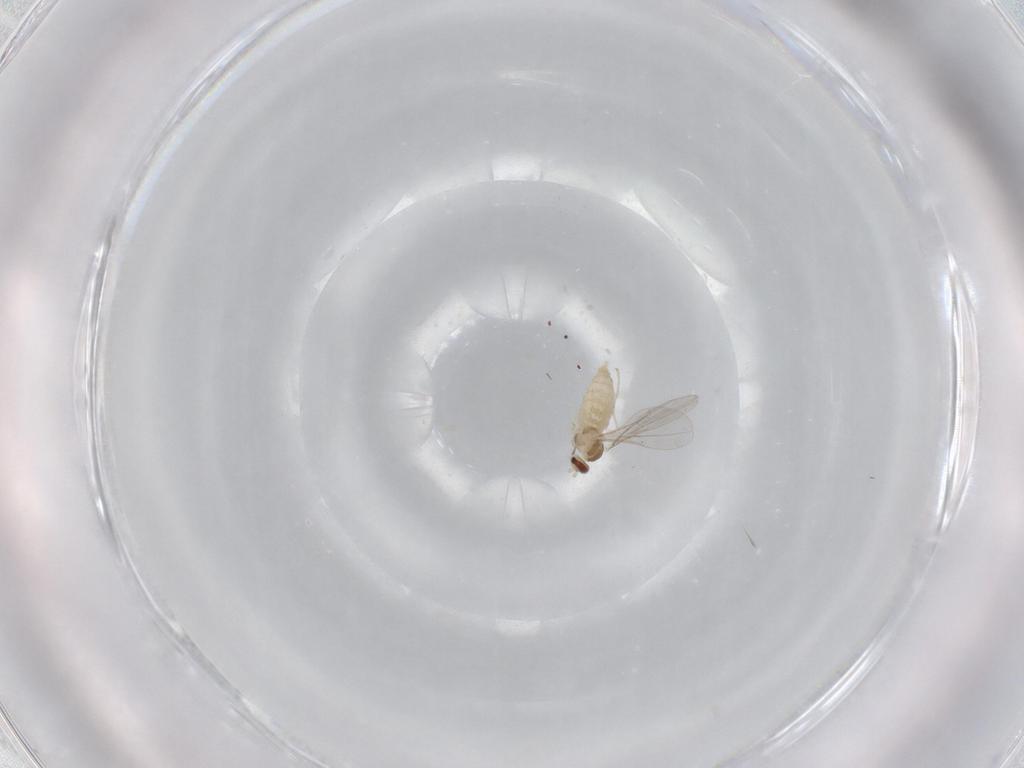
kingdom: Animalia
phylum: Arthropoda
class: Insecta
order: Diptera
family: Cecidomyiidae
